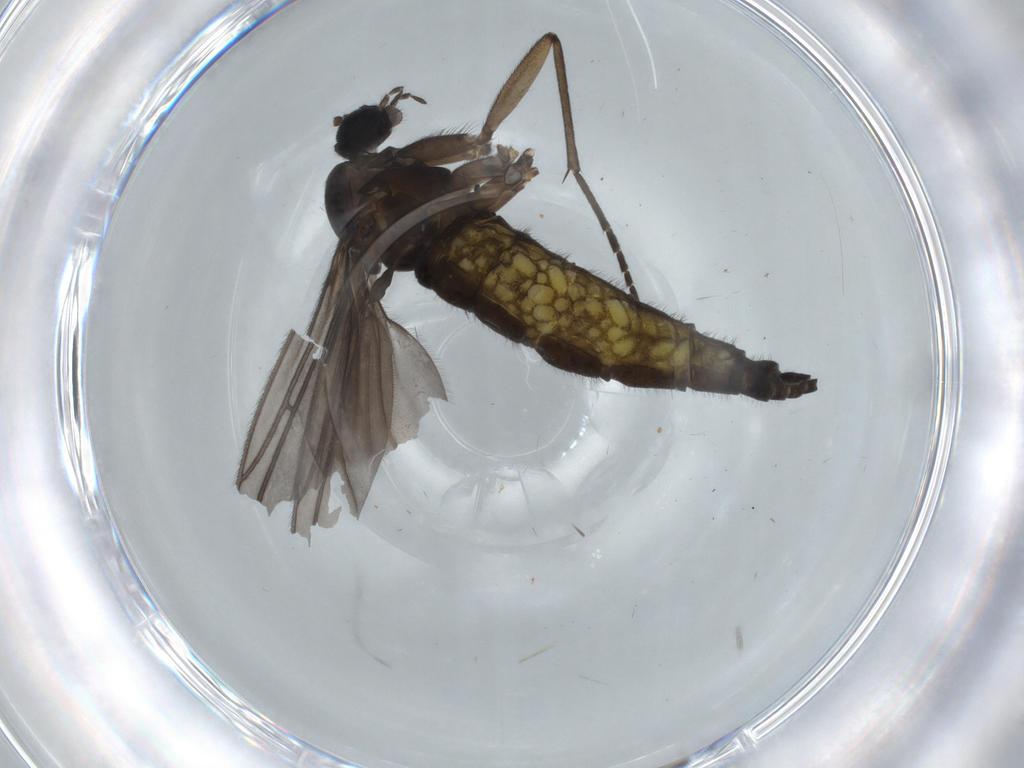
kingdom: Animalia
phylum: Arthropoda
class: Insecta
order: Diptera
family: Sciaridae
